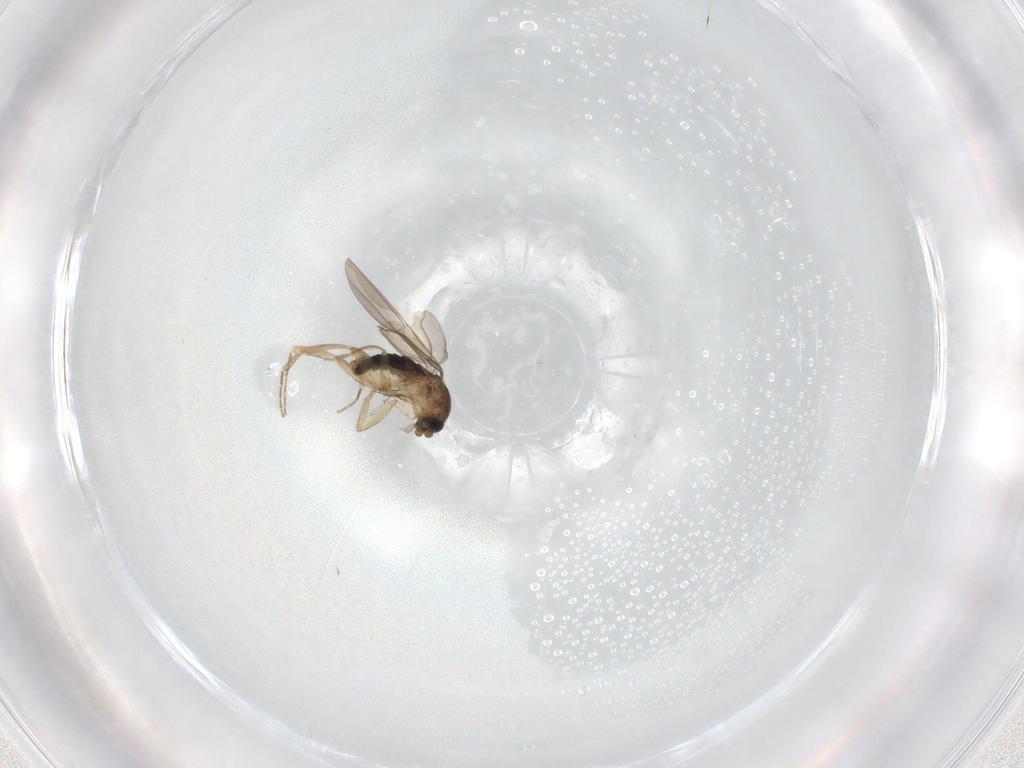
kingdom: Animalia
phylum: Arthropoda
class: Insecta
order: Diptera
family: Phoridae
